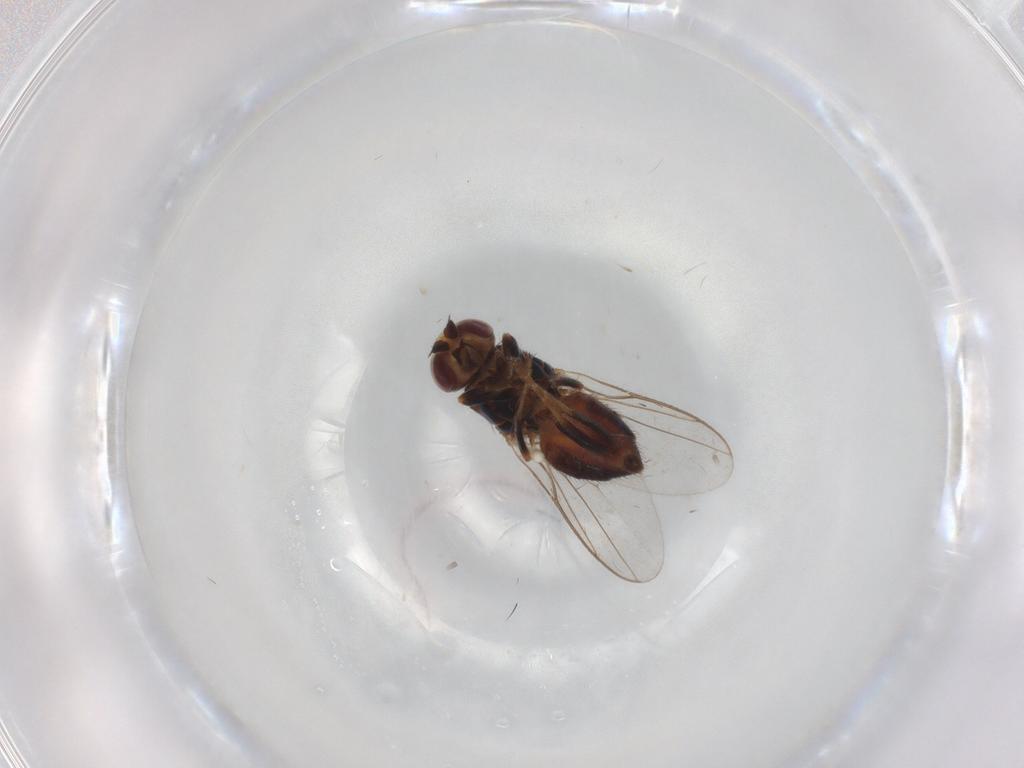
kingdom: Animalia
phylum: Arthropoda
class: Insecta
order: Diptera
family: Chloropidae
